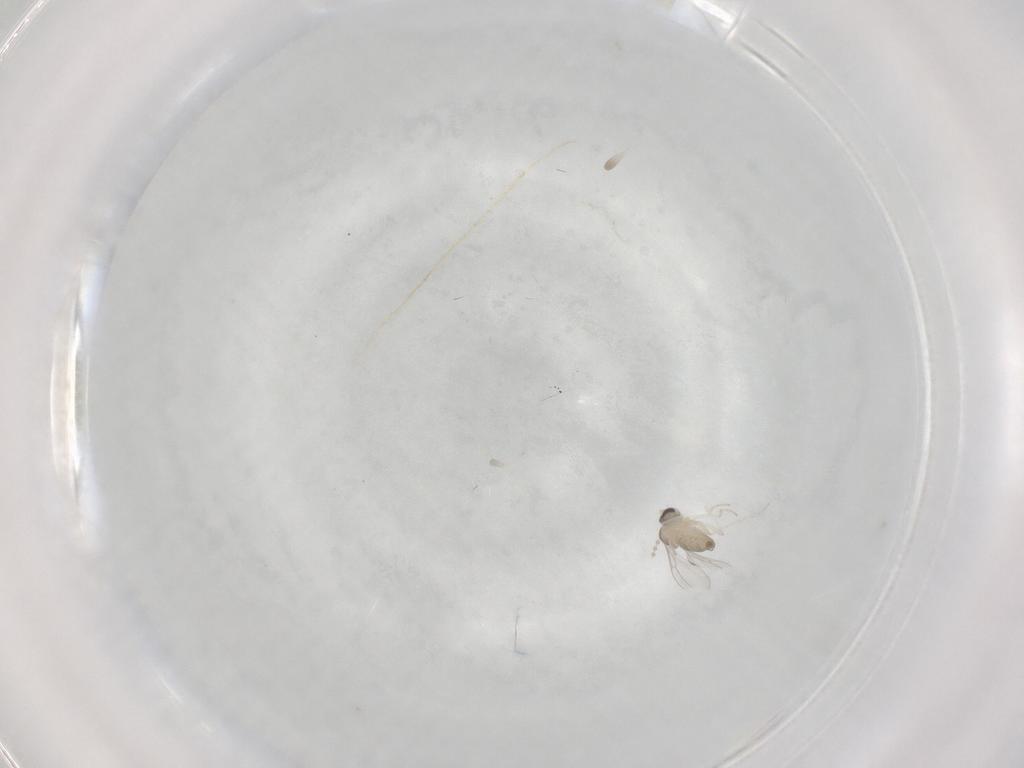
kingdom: Animalia
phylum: Arthropoda
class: Insecta
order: Diptera
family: Cecidomyiidae
